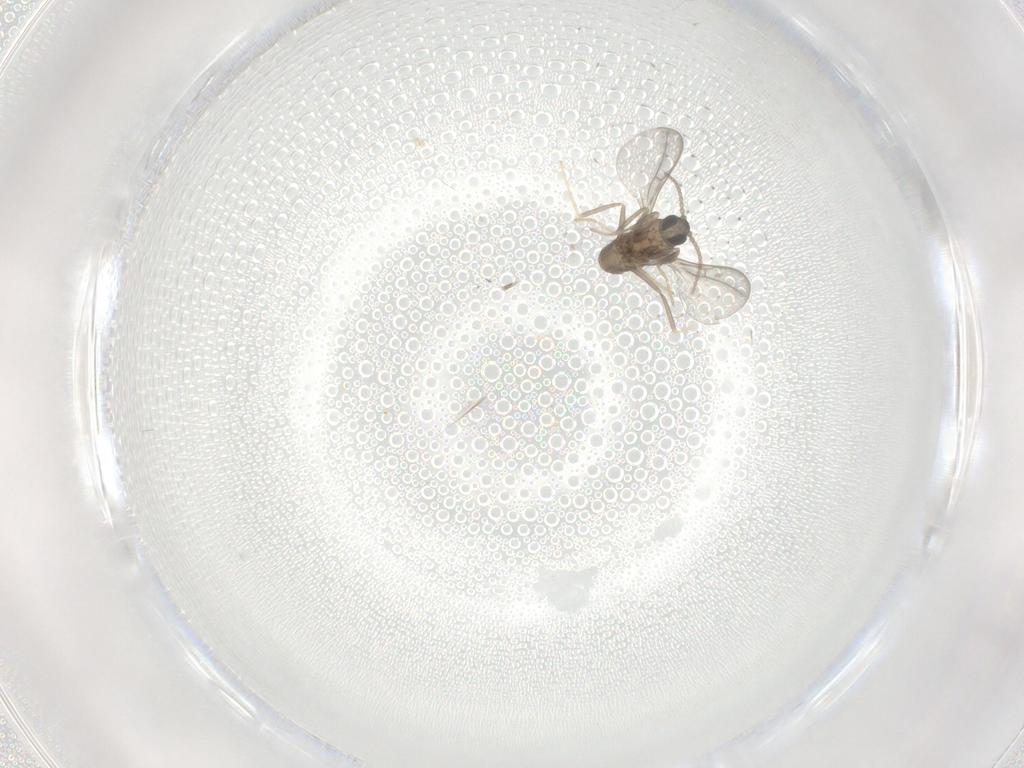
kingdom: Animalia
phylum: Arthropoda
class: Insecta
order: Diptera
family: Cecidomyiidae
